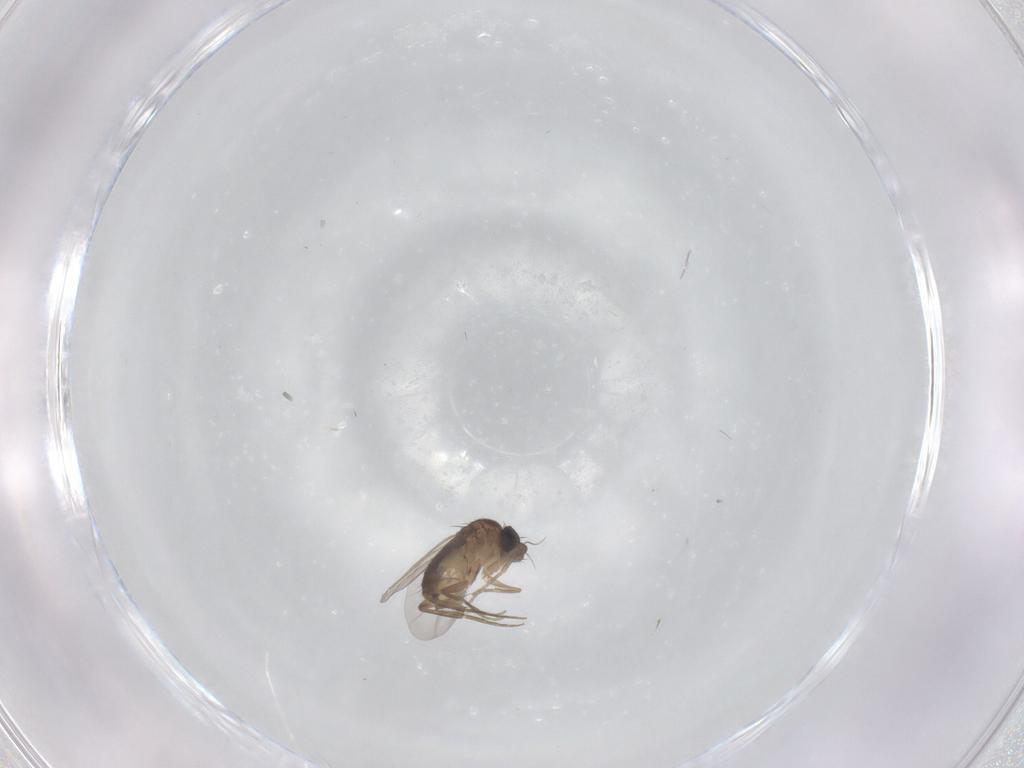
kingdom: Animalia
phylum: Arthropoda
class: Insecta
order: Diptera
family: Phoridae
